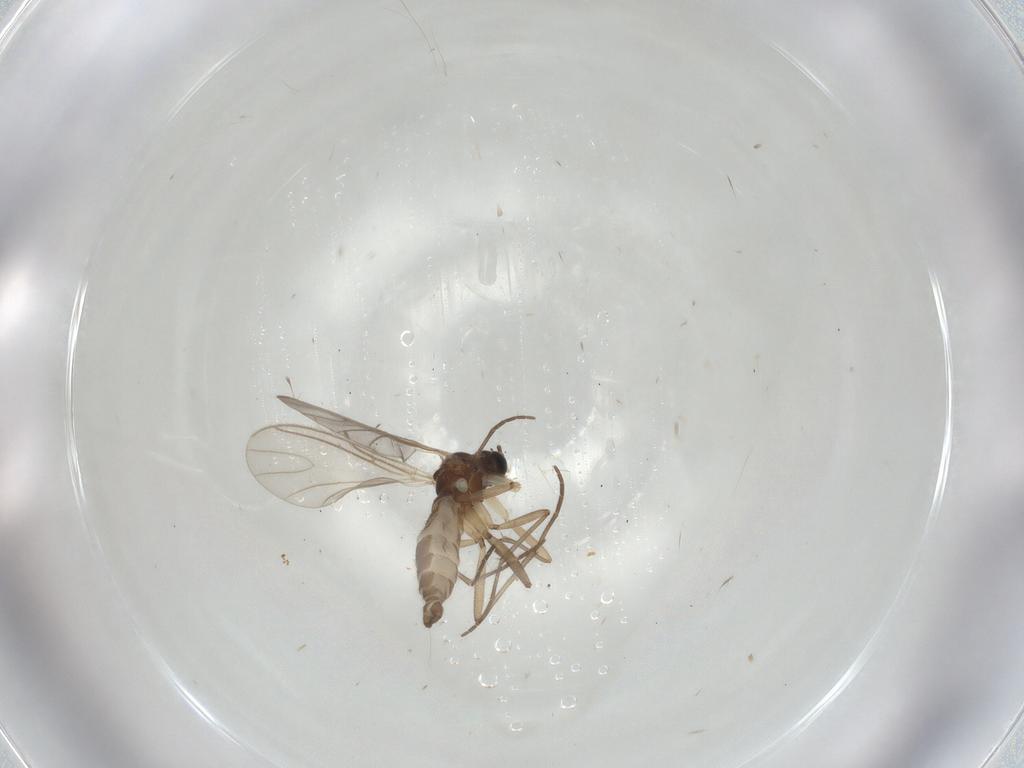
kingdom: Animalia
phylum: Arthropoda
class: Insecta
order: Diptera
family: Sciaridae
